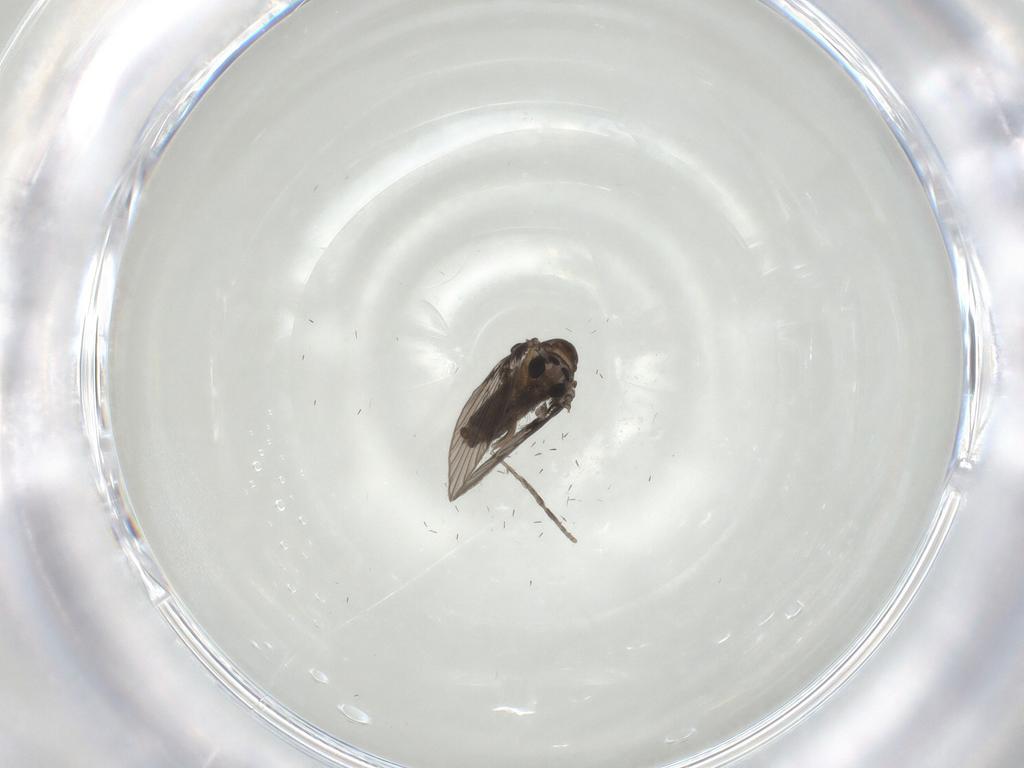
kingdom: Animalia
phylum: Arthropoda
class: Insecta
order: Diptera
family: Psychodidae
